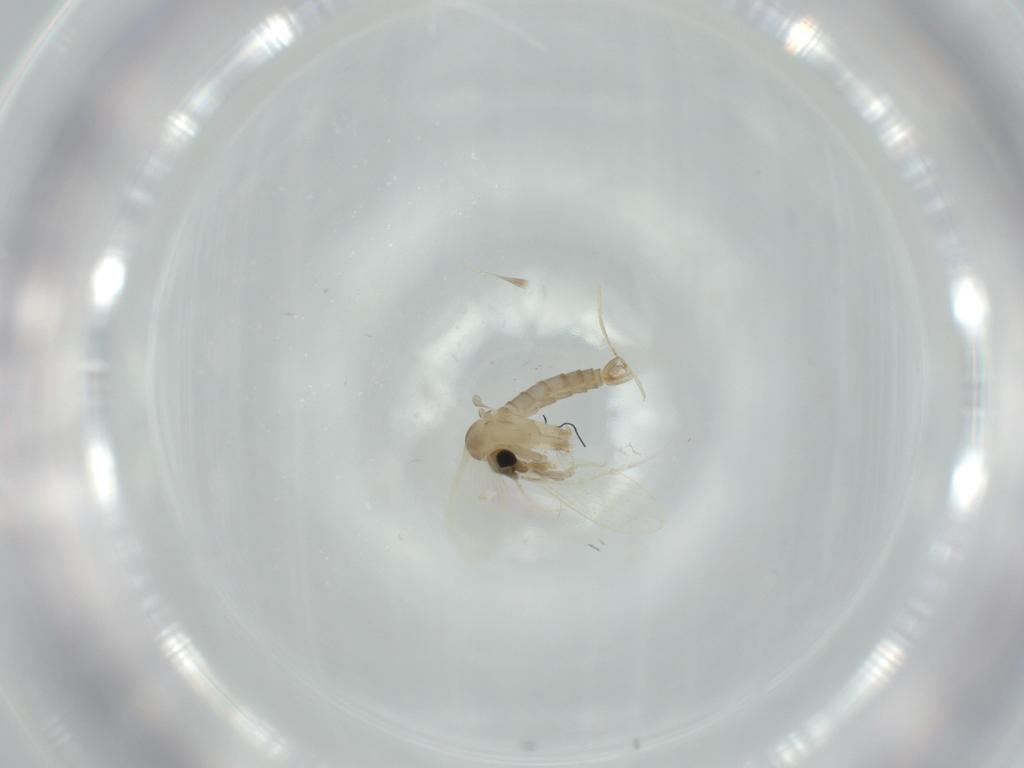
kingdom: Animalia
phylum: Arthropoda
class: Insecta
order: Diptera
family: Psychodidae
